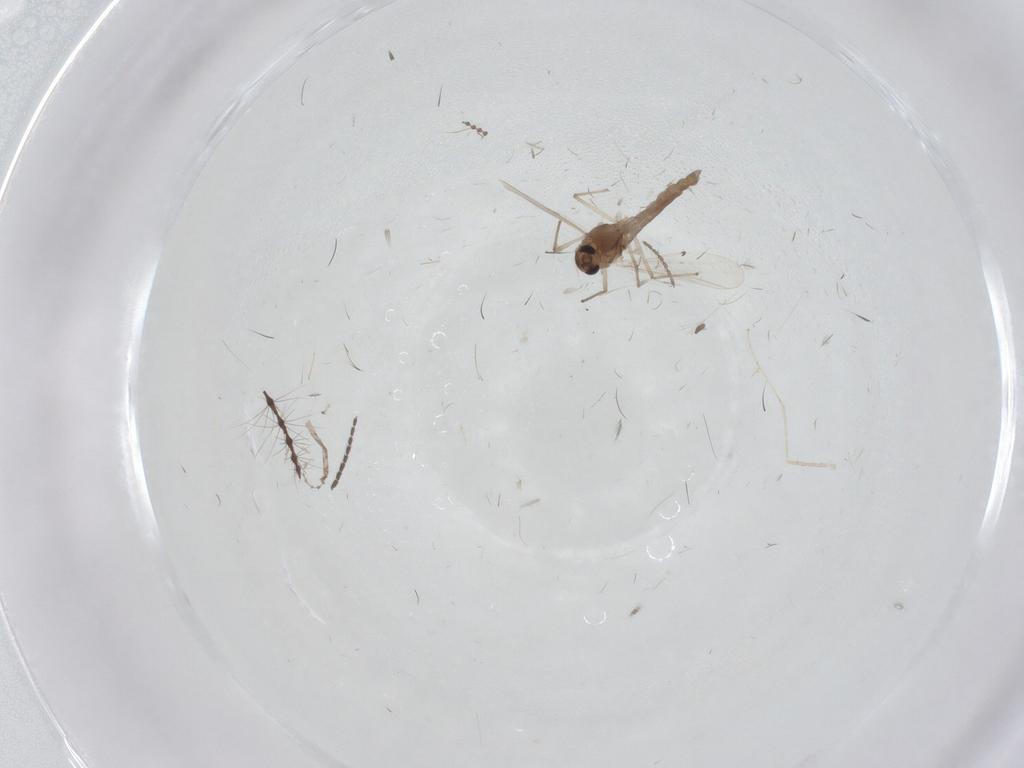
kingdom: Animalia
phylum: Arthropoda
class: Insecta
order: Diptera
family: Chironomidae
